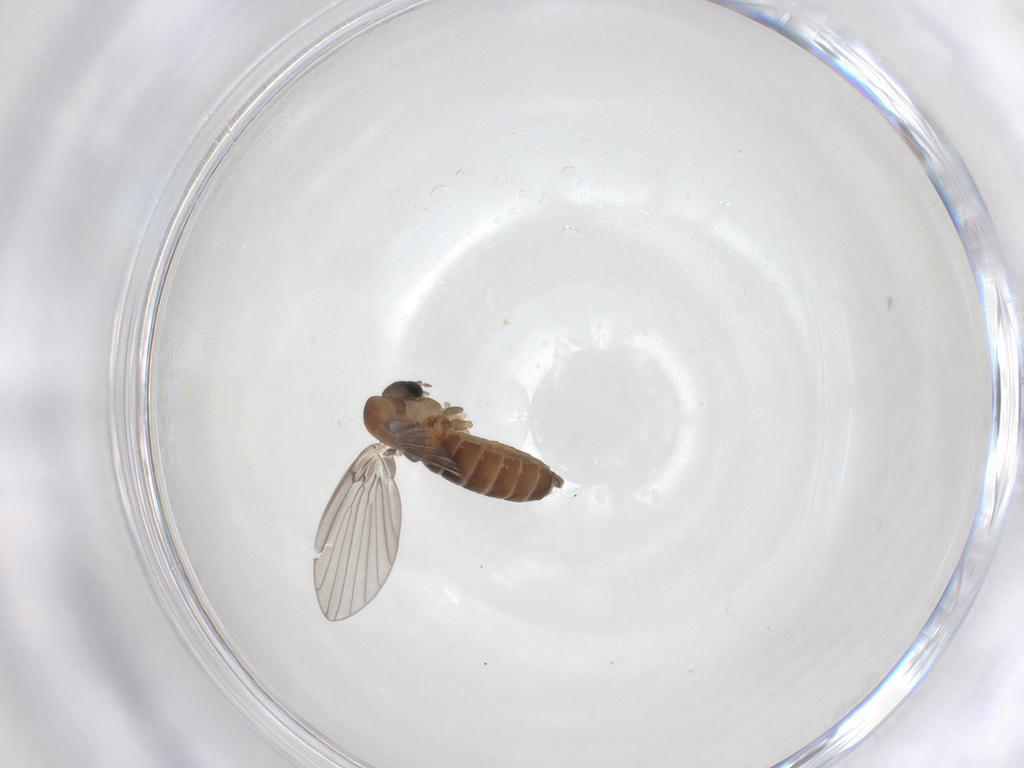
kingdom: Animalia
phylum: Arthropoda
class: Insecta
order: Diptera
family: Psychodidae
